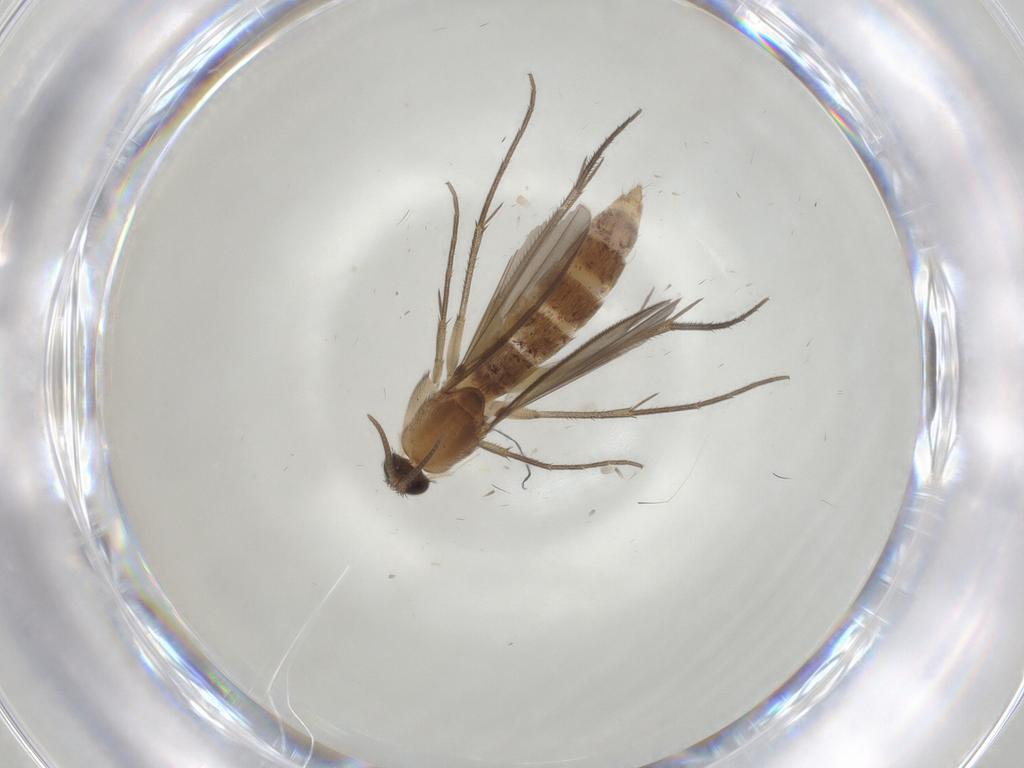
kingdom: Animalia
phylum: Arthropoda
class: Insecta
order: Diptera
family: Mycetophilidae
